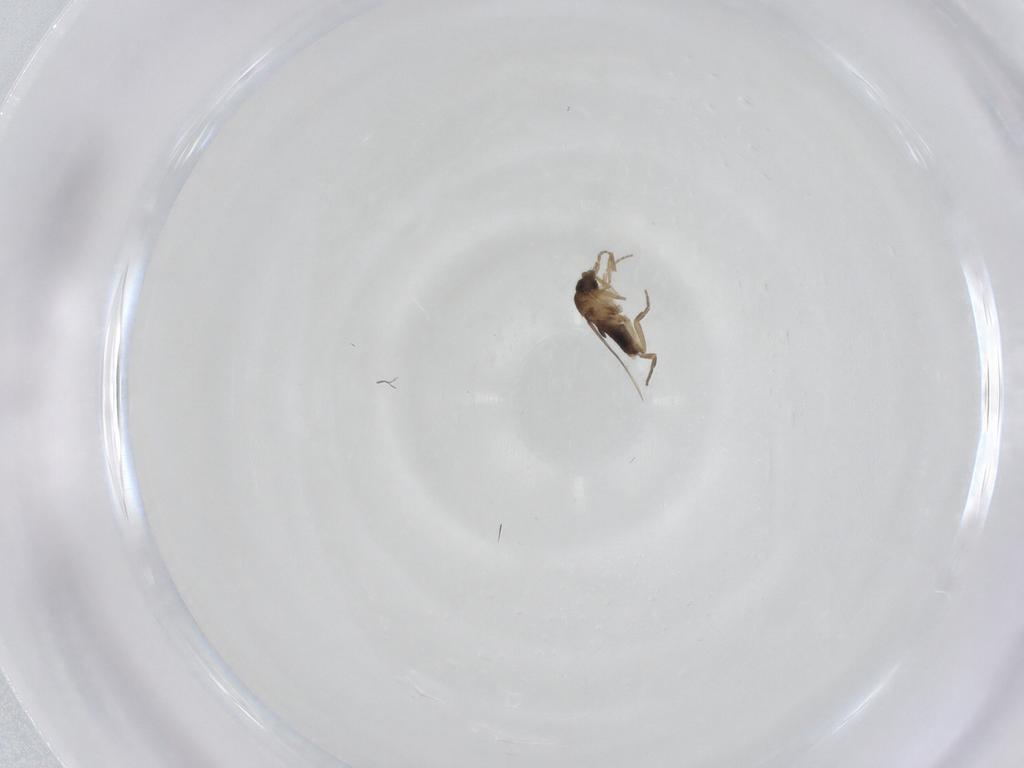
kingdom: Animalia
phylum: Arthropoda
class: Insecta
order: Diptera
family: Phoridae
